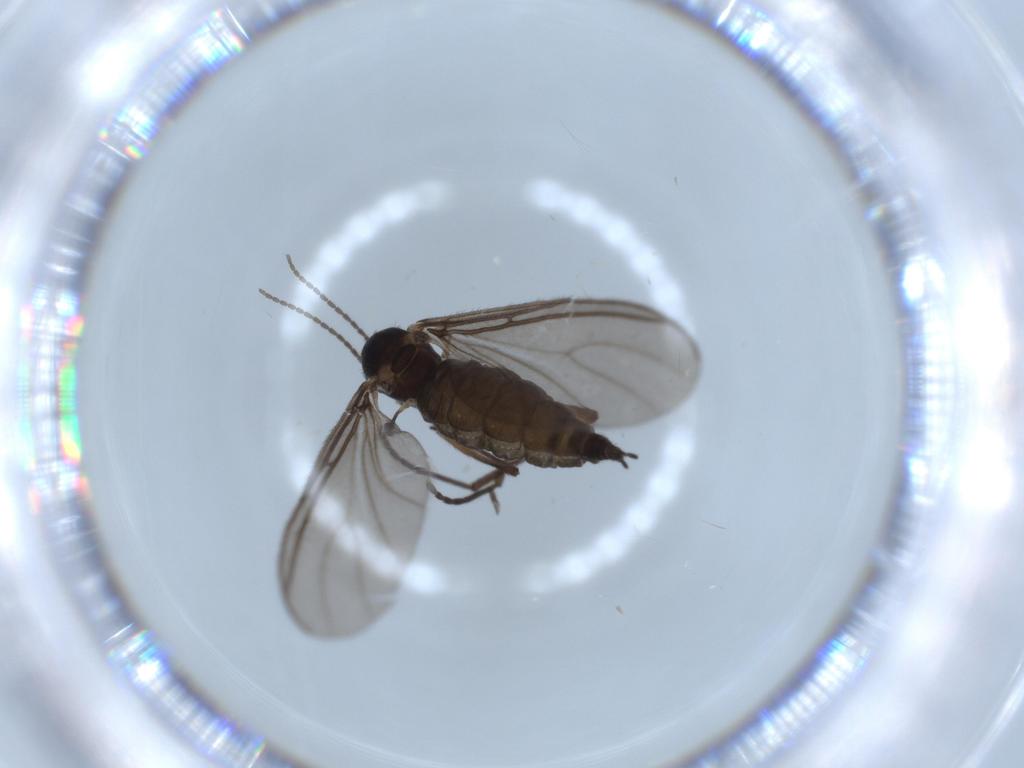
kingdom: Animalia
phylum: Arthropoda
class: Insecta
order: Diptera
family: Sciaridae
